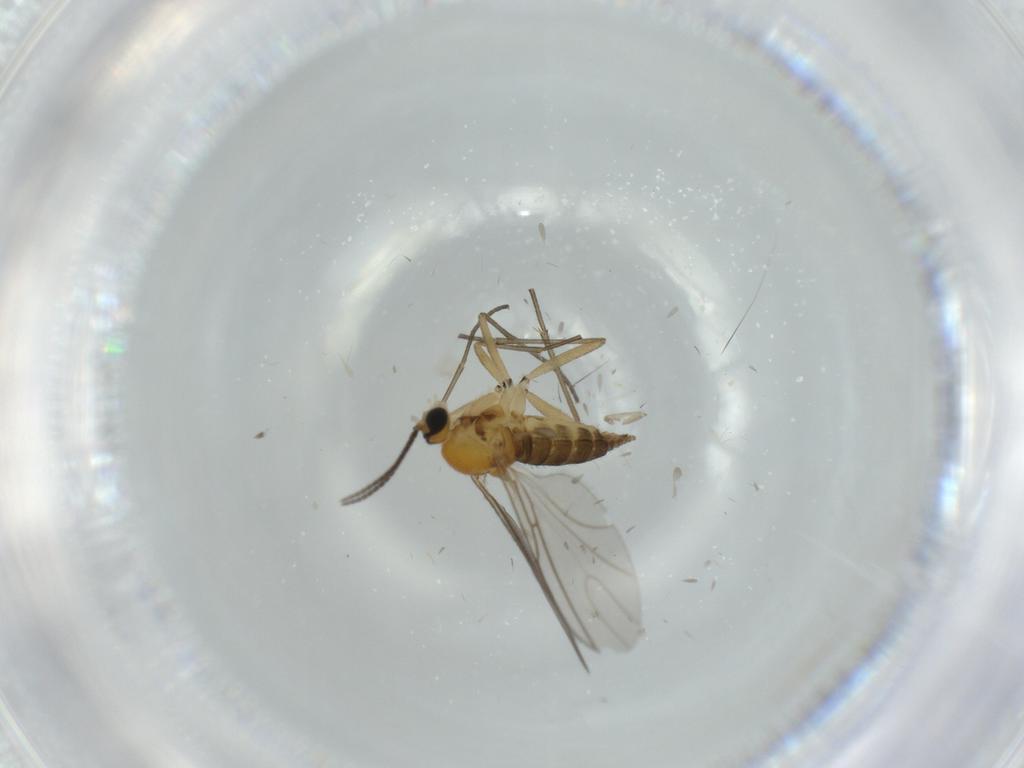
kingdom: Animalia
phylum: Arthropoda
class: Insecta
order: Diptera
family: Sciaridae
